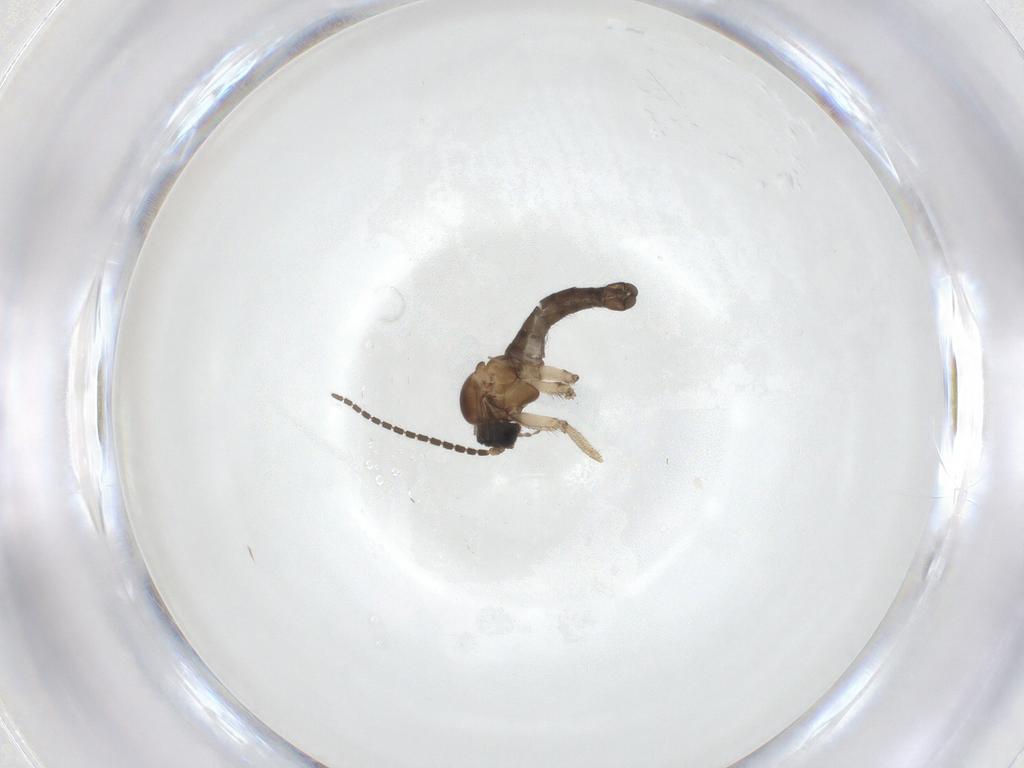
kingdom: Animalia
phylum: Arthropoda
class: Insecta
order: Diptera
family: Sciaridae
